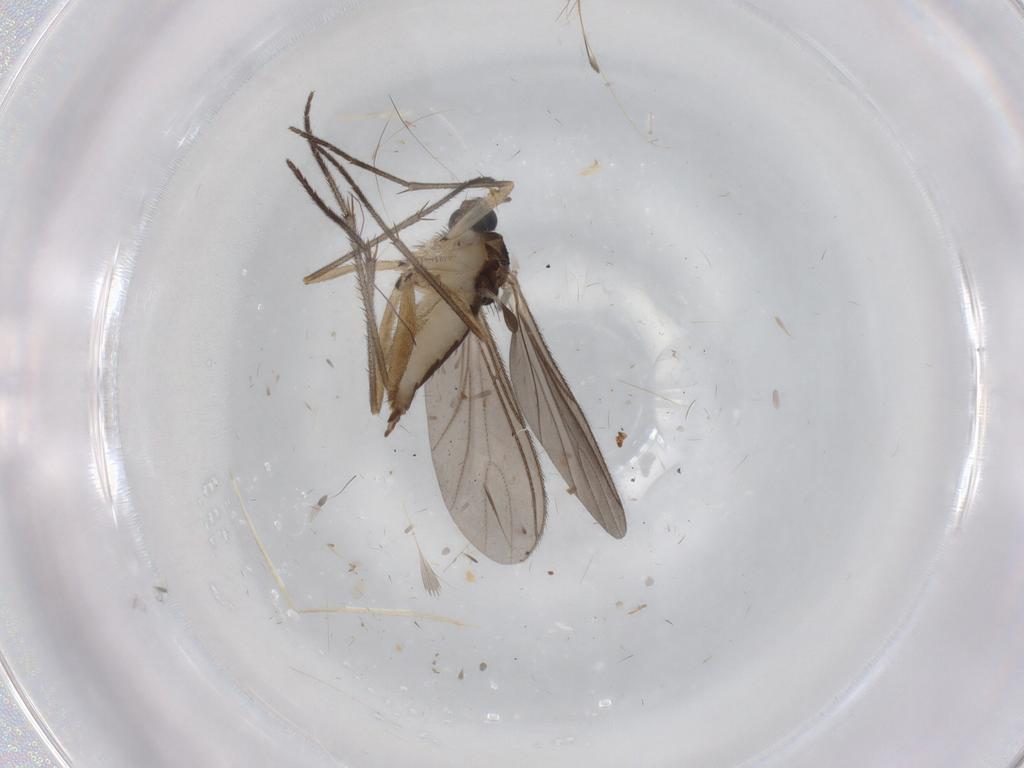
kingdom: Animalia
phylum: Arthropoda
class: Insecta
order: Diptera
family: Sciaridae
